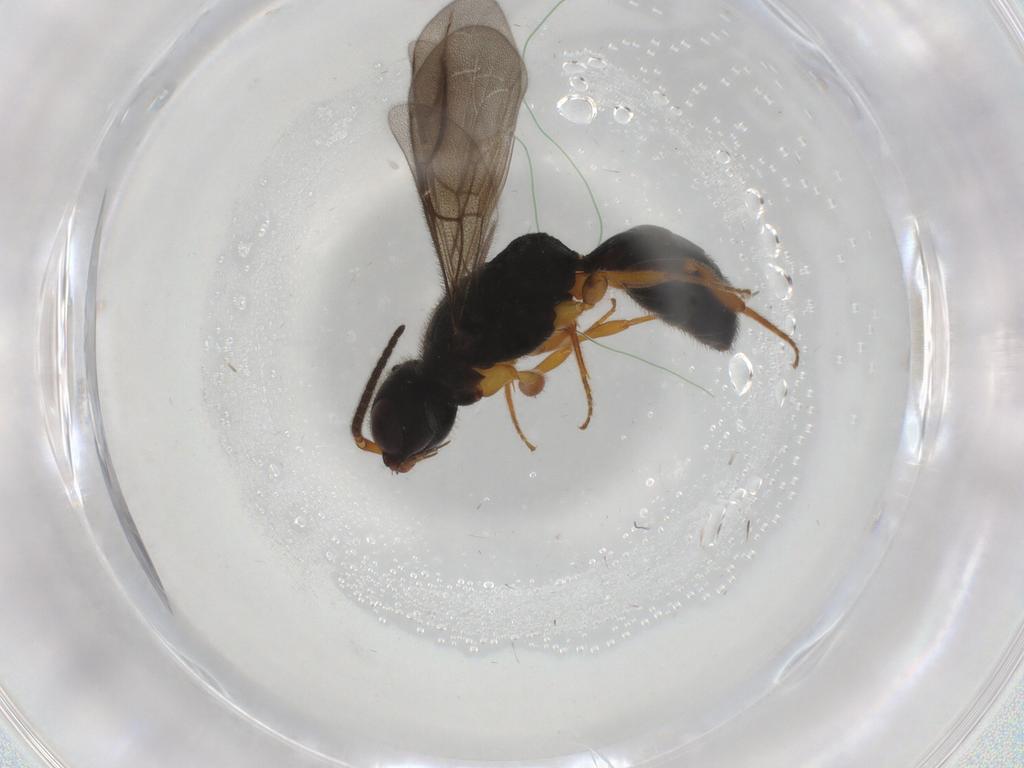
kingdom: Animalia
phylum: Arthropoda
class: Insecta
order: Hymenoptera
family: Bethylidae
